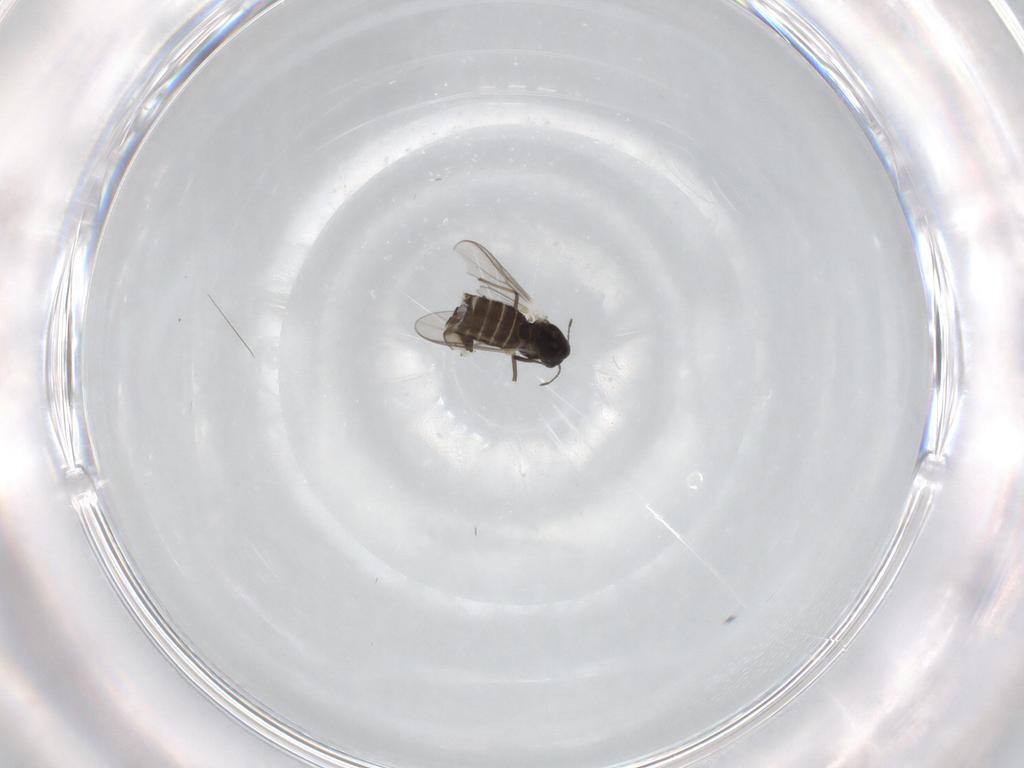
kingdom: Animalia
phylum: Arthropoda
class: Insecta
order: Diptera
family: Chironomidae
